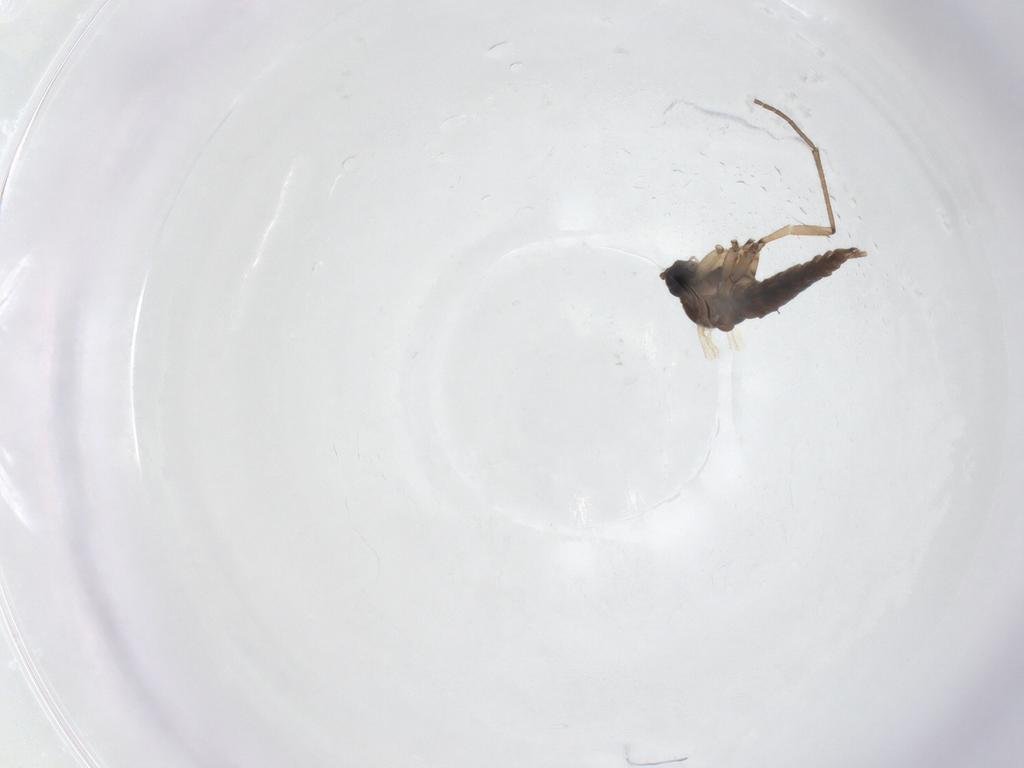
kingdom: Animalia
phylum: Arthropoda
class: Insecta
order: Diptera
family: Sciaridae
